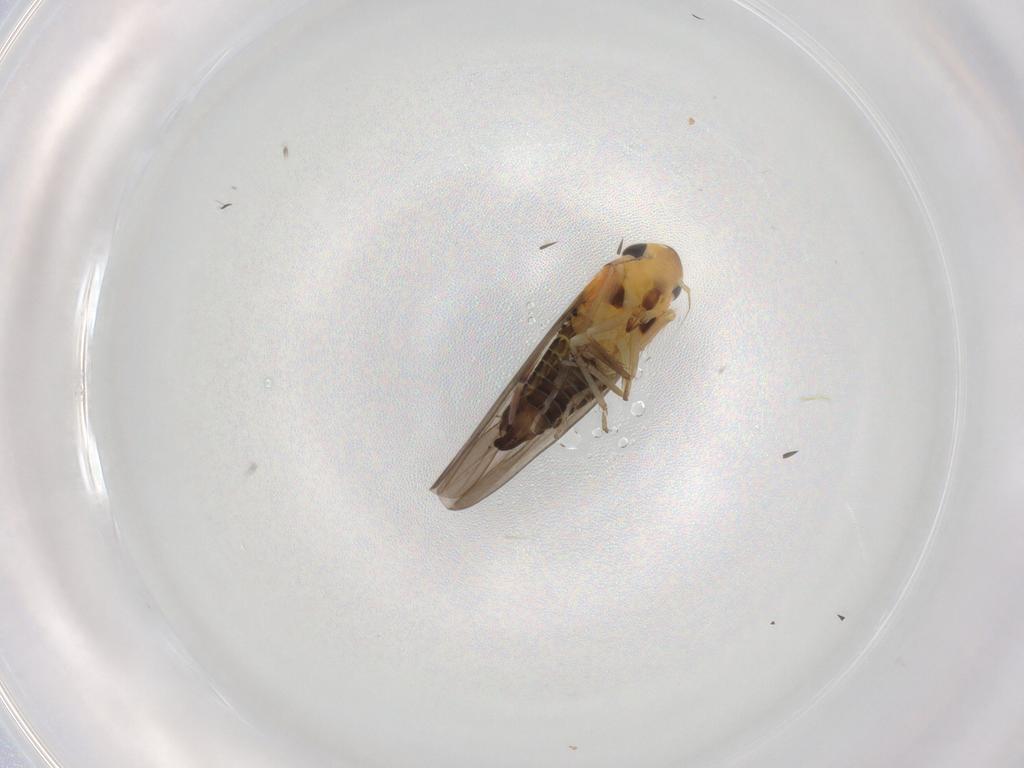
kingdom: Animalia
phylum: Arthropoda
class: Insecta
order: Hemiptera
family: Cicadellidae
